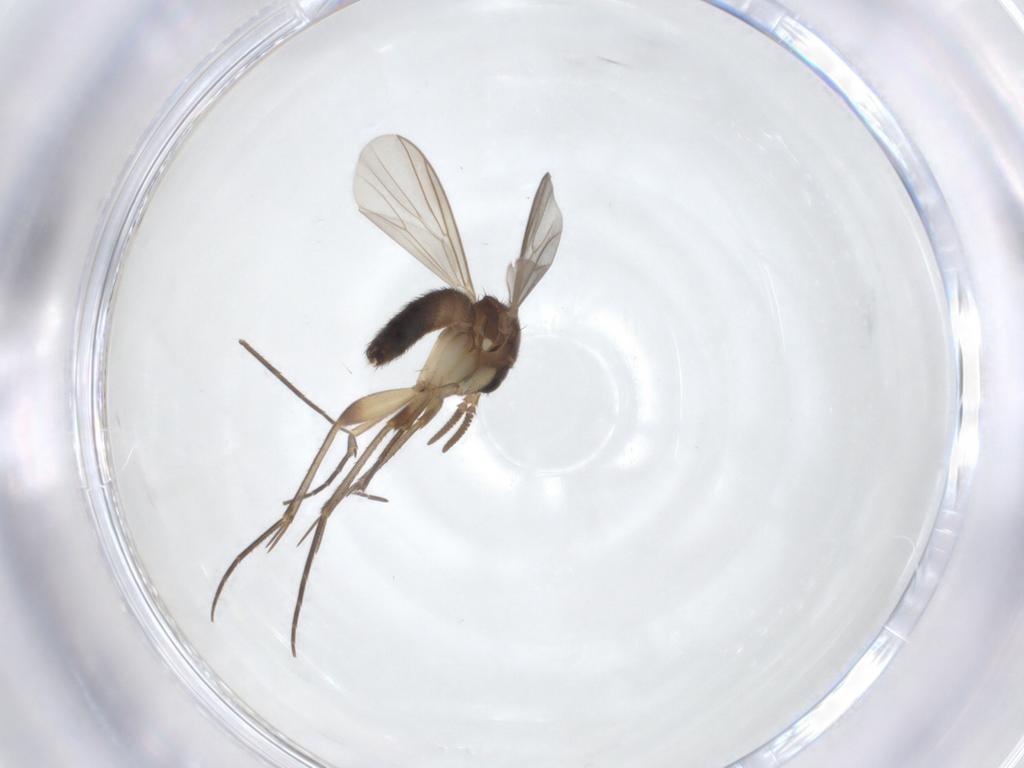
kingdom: Animalia
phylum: Arthropoda
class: Insecta
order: Diptera
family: Mycetophilidae
